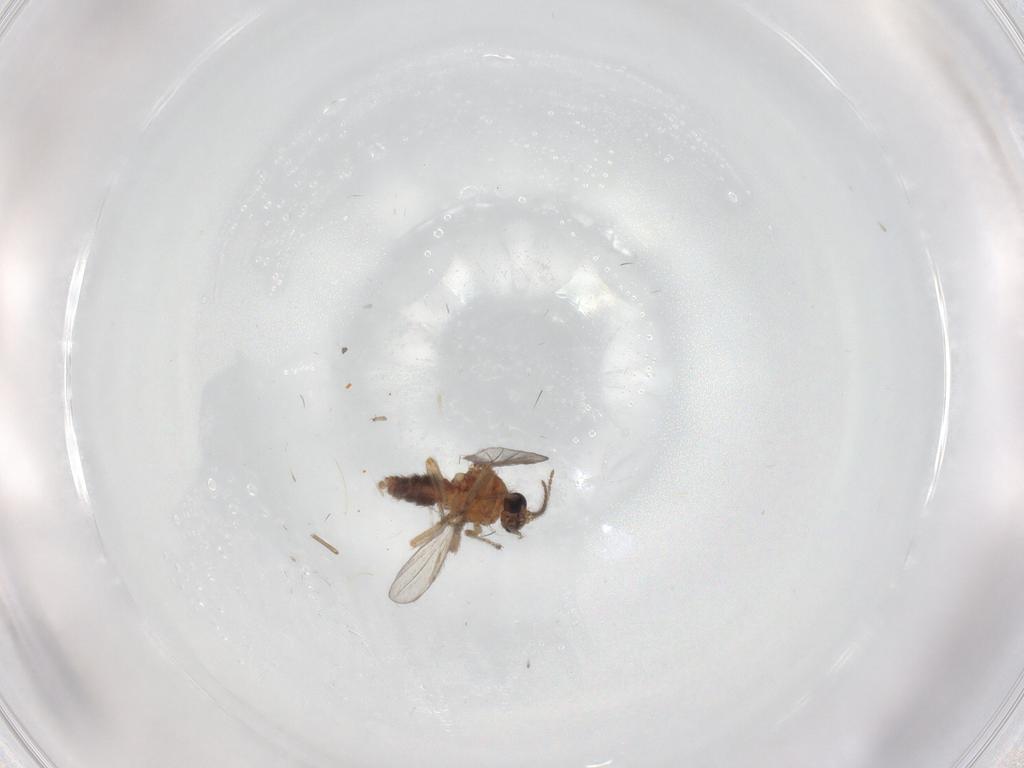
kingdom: Animalia
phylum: Arthropoda
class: Insecta
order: Diptera
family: Ceratopogonidae
